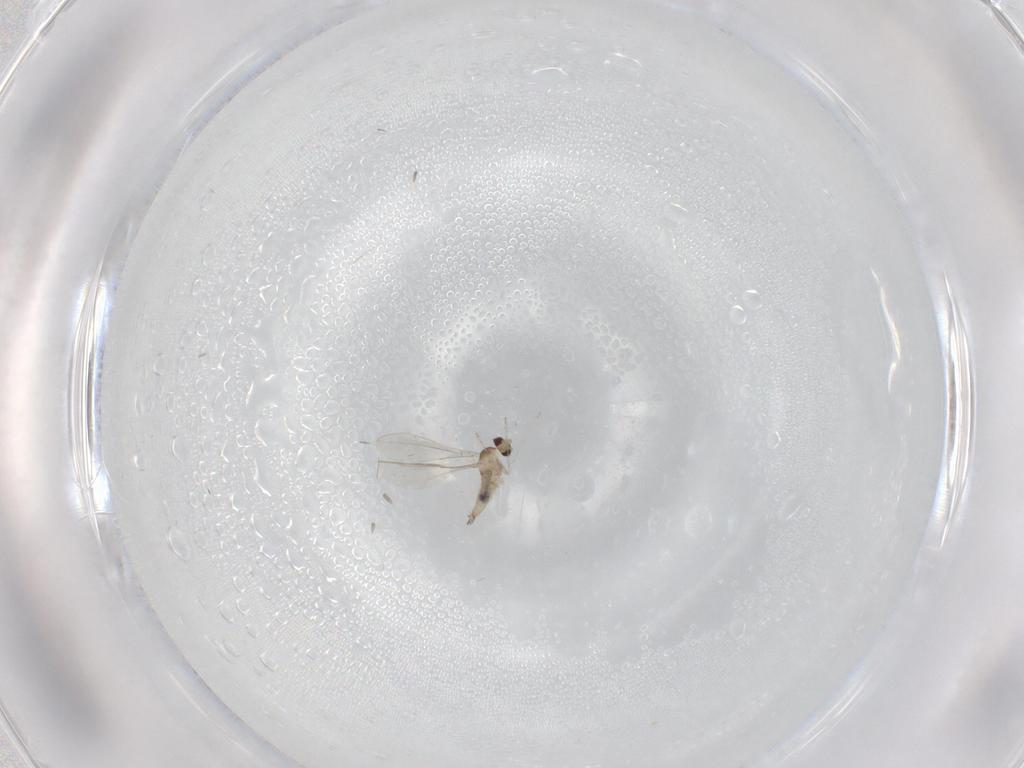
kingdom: Animalia
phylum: Arthropoda
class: Insecta
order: Diptera
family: Cecidomyiidae
